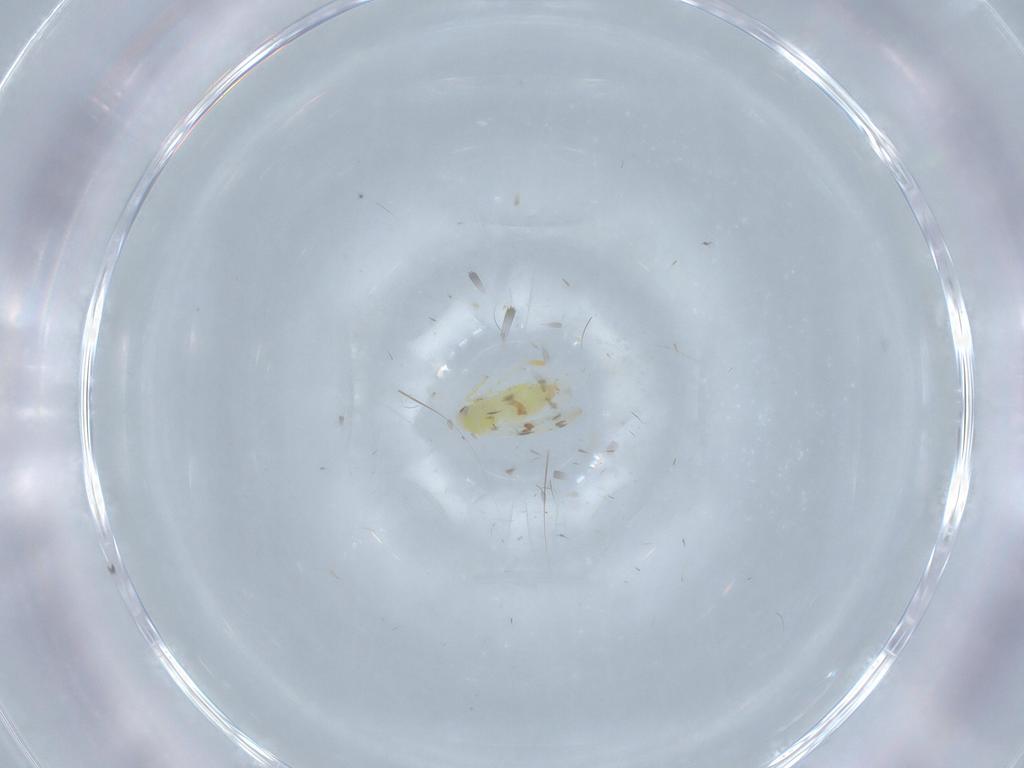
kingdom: Animalia
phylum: Arthropoda
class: Insecta
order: Hemiptera
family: Aleyrodidae
